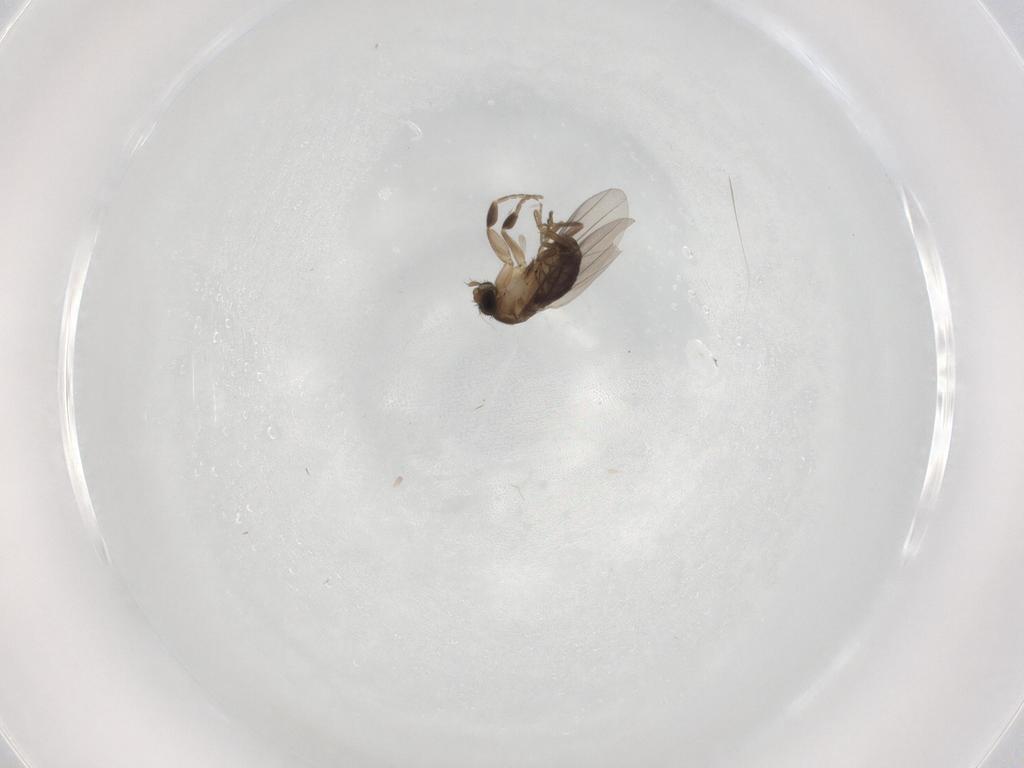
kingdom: Animalia
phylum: Arthropoda
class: Insecta
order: Diptera
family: Phoridae
